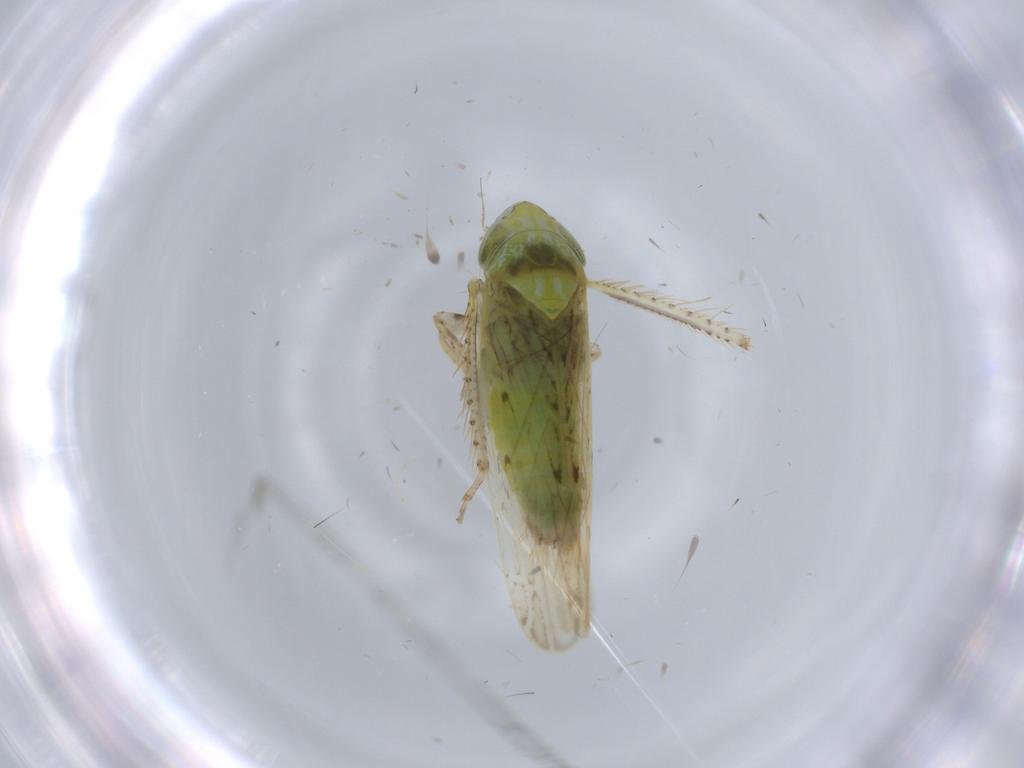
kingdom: Animalia
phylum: Arthropoda
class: Insecta
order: Hemiptera
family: Cicadellidae
